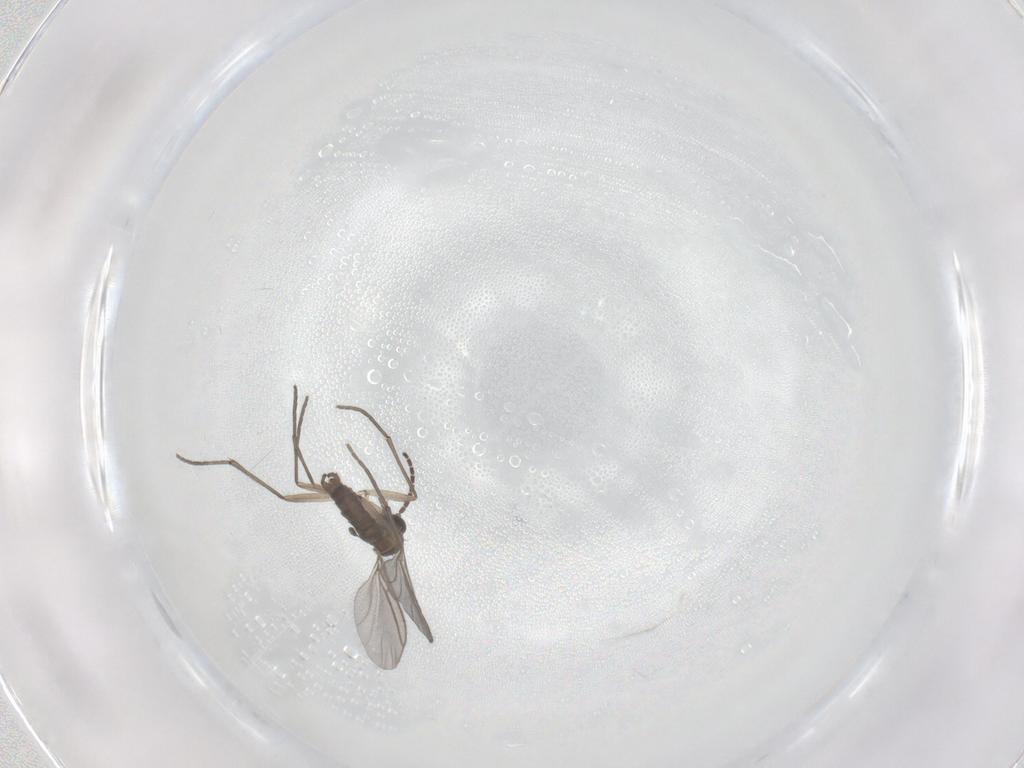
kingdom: Animalia
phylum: Arthropoda
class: Insecta
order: Diptera
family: Sciaridae
